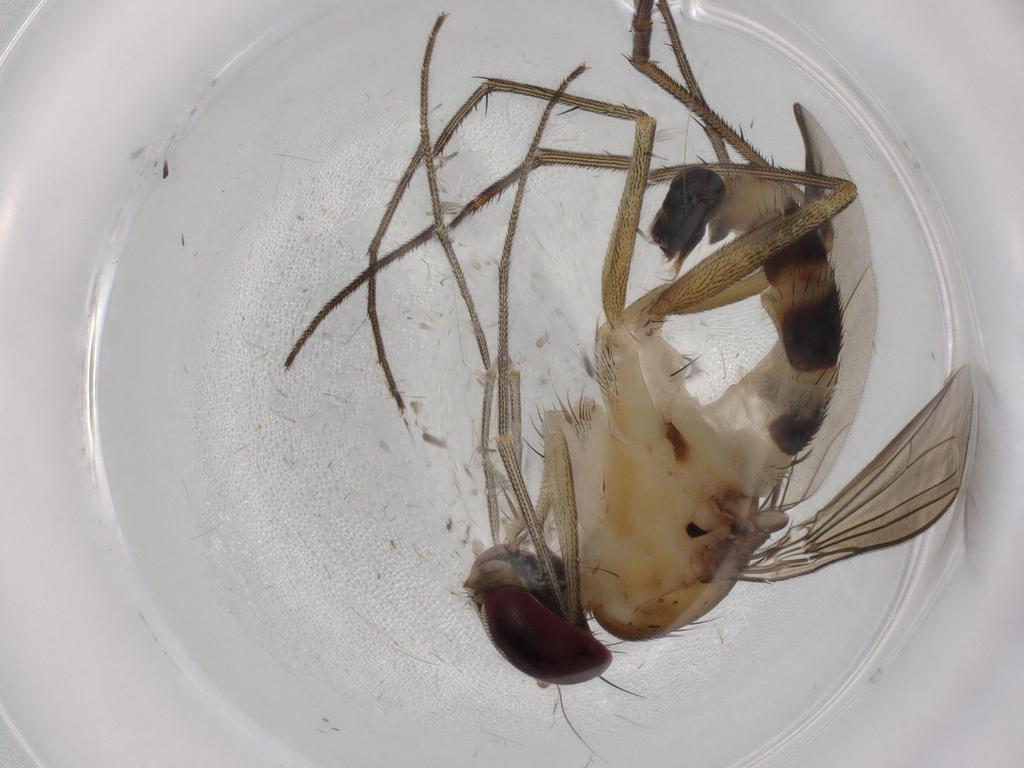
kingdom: Animalia
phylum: Arthropoda
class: Insecta
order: Diptera
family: Dolichopodidae
